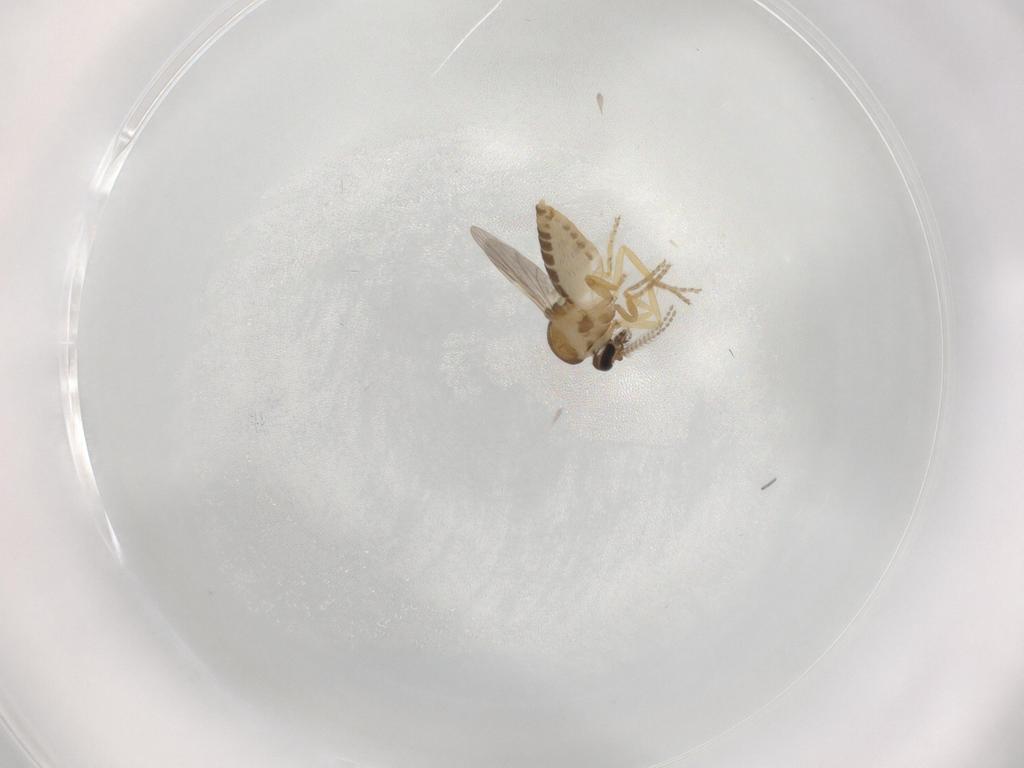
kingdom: Animalia
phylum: Arthropoda
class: Insecta
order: Diptera
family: Ceratopogonidae
